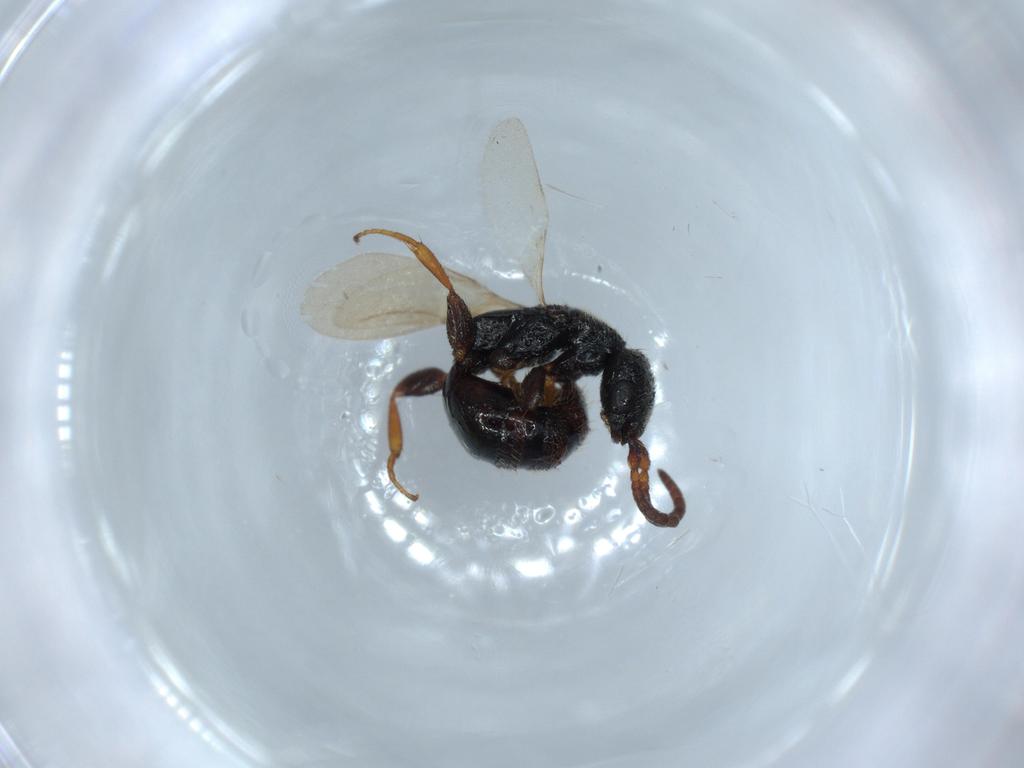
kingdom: Animalia
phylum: Arthropoda
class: Insecta
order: Hymenoptera
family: Bethylidae
